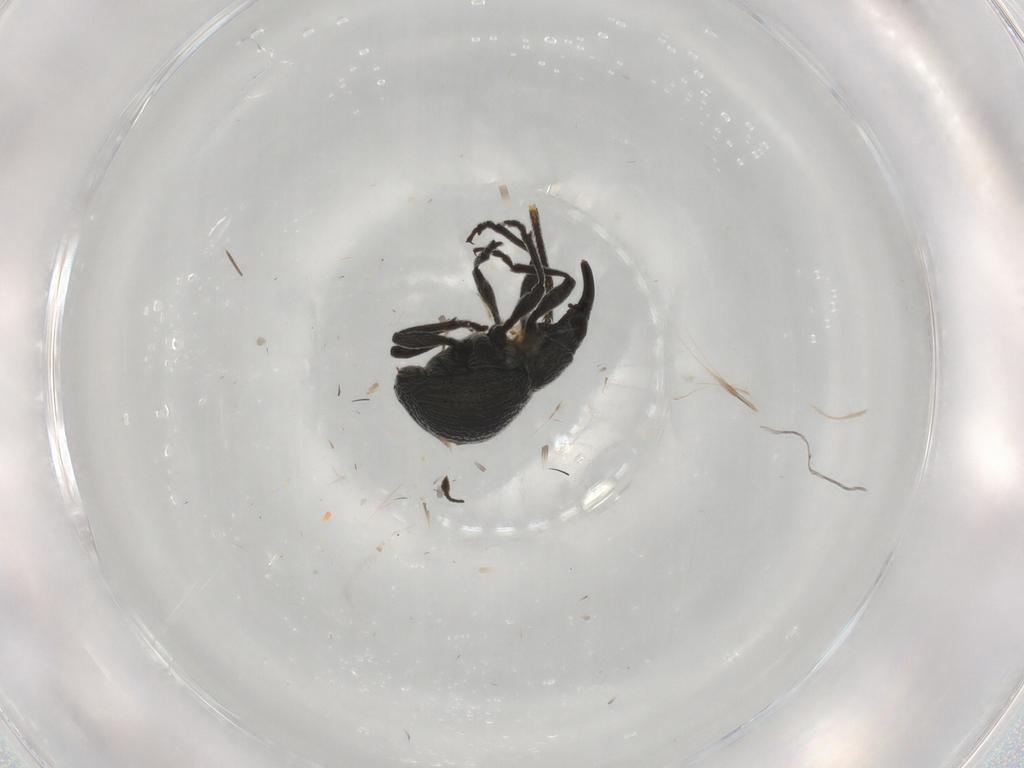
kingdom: Animalia
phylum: Arthropoda
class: Insecta
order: Coleoptera
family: Brentidae
